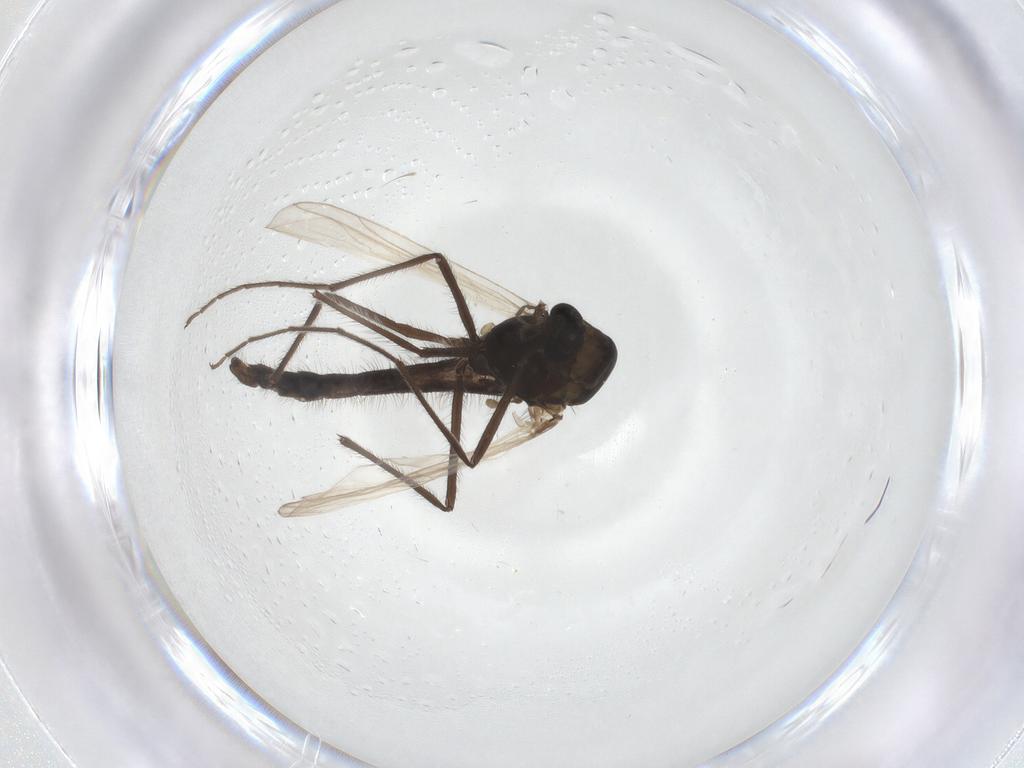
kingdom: Animalia
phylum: Arthropoda
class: Insecta
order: Diptera
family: Chironomidae
